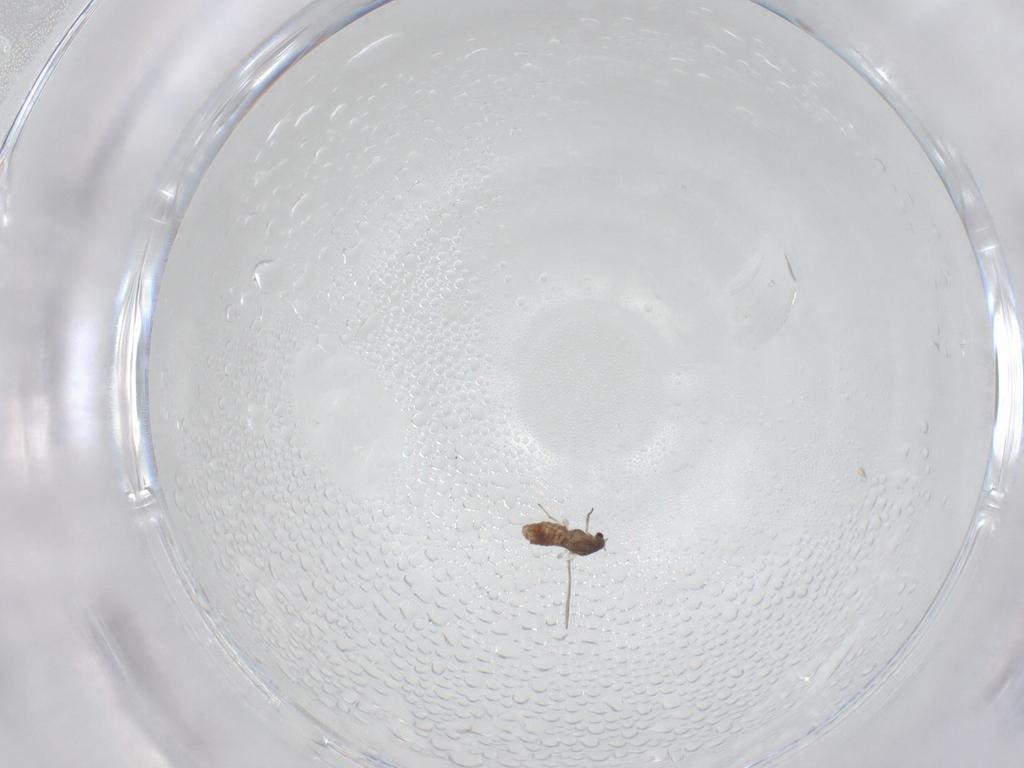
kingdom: Animalia
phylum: Arthropoda
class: Insecta
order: Diptera
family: Chironomidae
